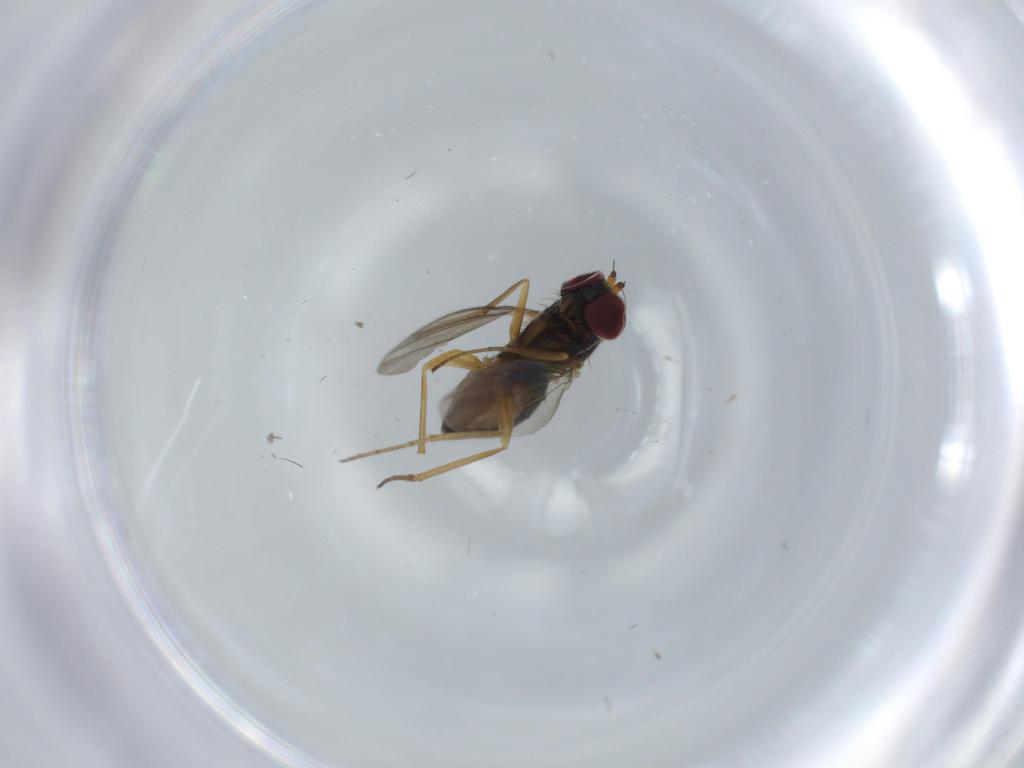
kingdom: Animalia
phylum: Arthropoda
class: Insecta
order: Diptera
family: Dolichopodidae
